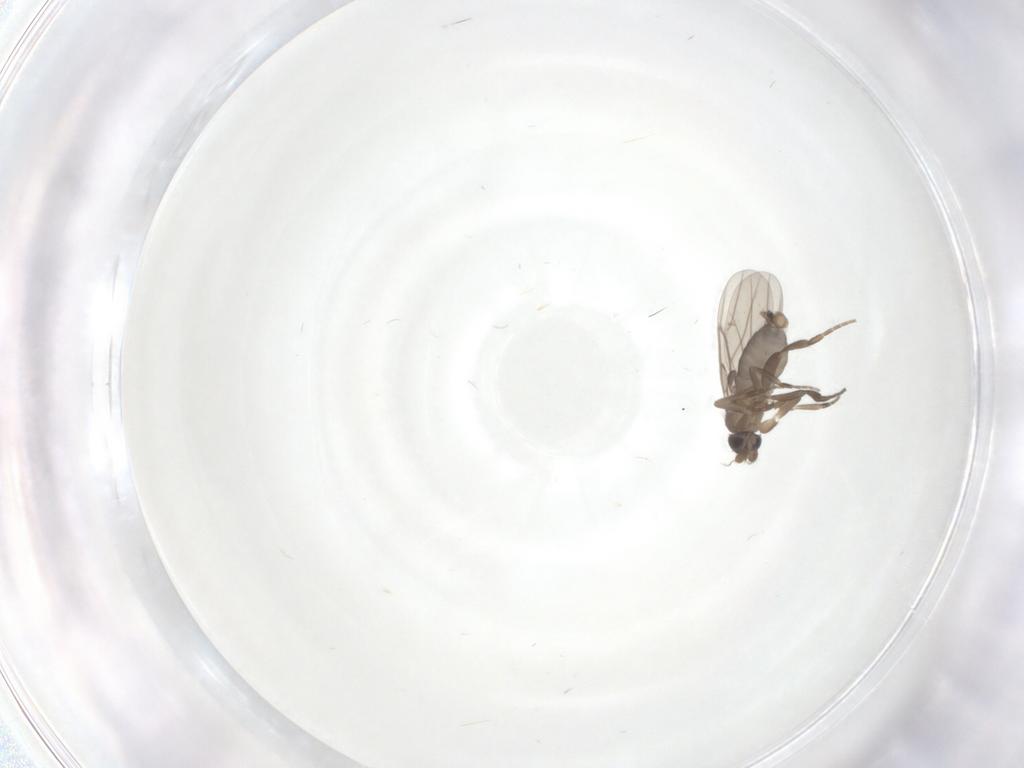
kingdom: Animalia
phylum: Arthropoda
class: Insecta
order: Diptera
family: Phoridae
